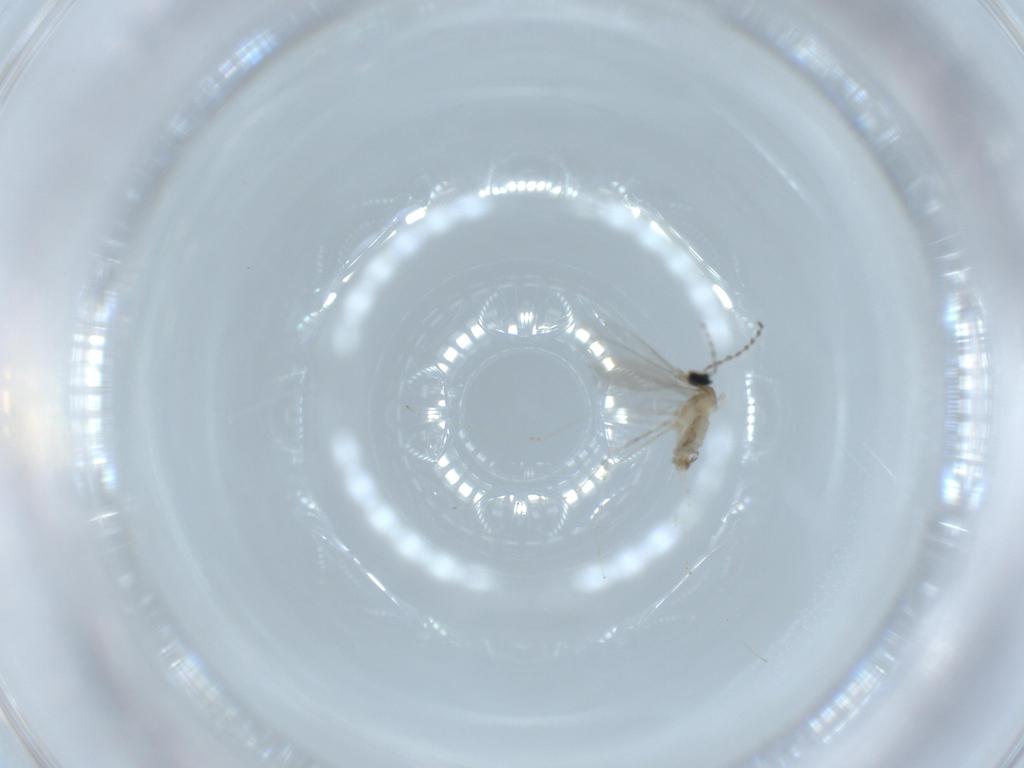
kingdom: Animalia
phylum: Arthropoda
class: Insecta
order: Diptera
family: Cecidomyiidae
